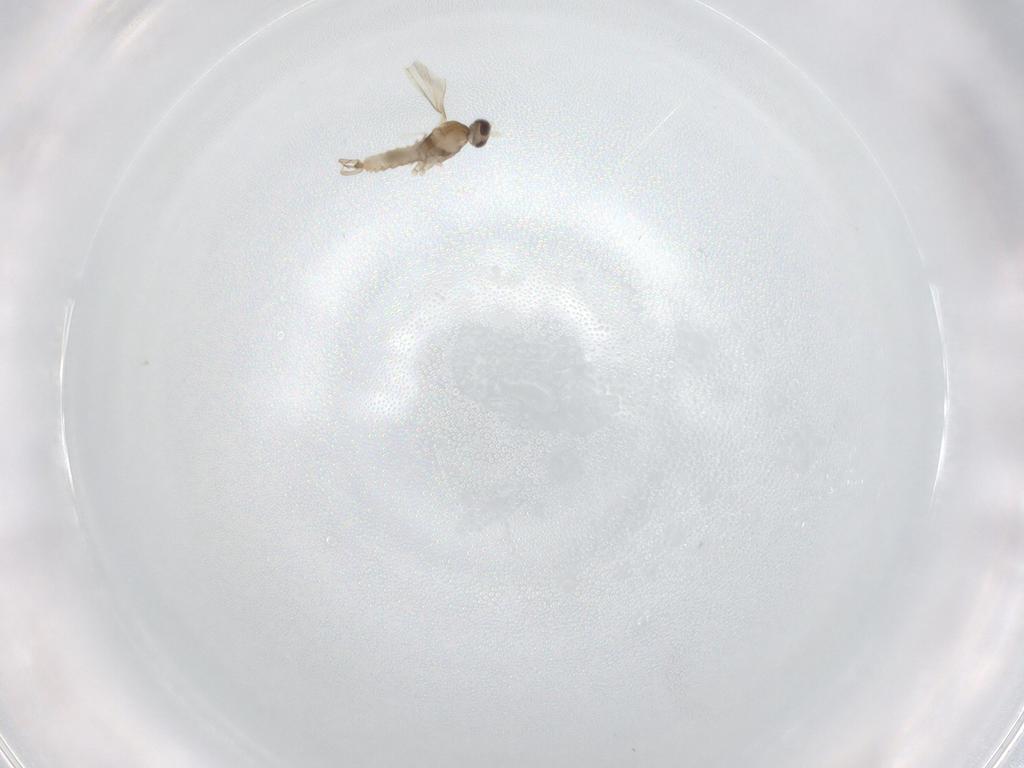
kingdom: Animalia
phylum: Arthropoda
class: Insecta
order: Diptera
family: Cecidomyiidae
